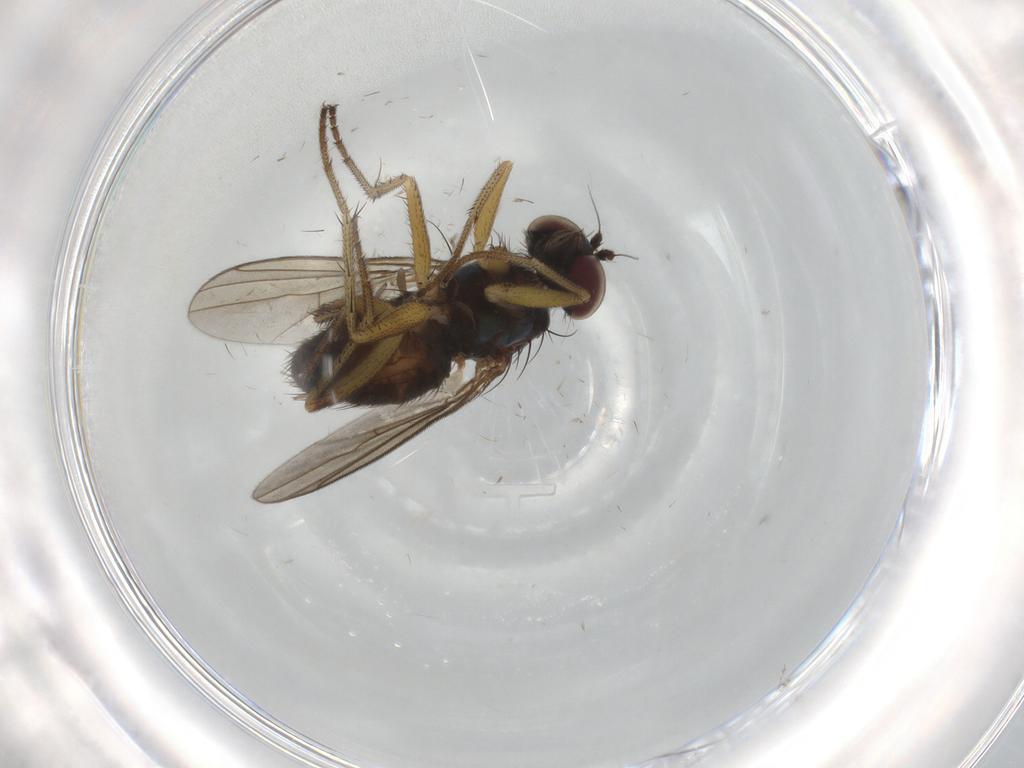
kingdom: Animalia
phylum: Arthropoda
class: Insecta
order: Diptera
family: Dolichopodidae
